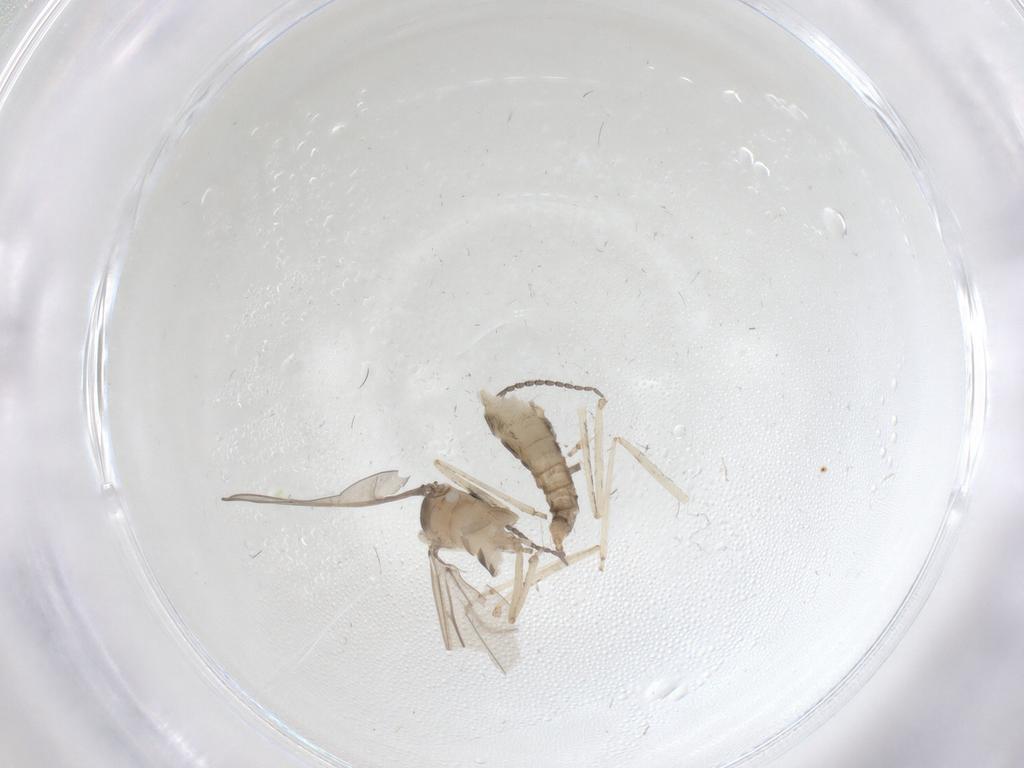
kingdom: Animalia
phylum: Arthropoda
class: Insecta
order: Diptera
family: Cecidomyiidae
